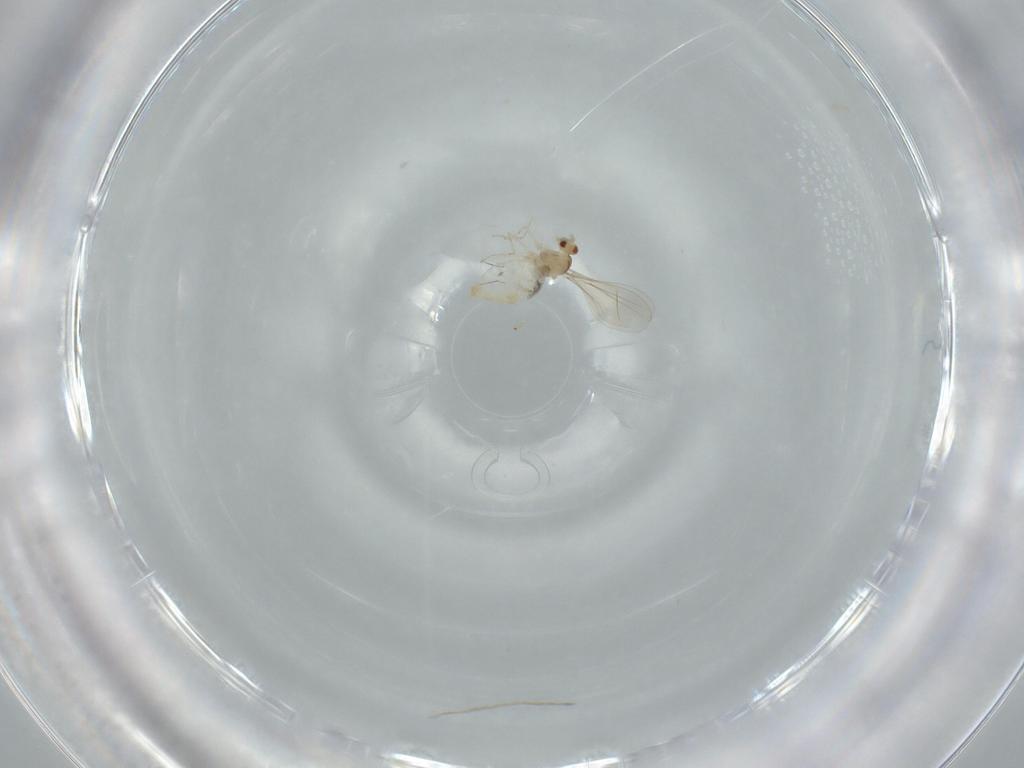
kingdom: Animalia
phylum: Arthropoda
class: Insecta
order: Diptera
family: Cecidomyiidae
